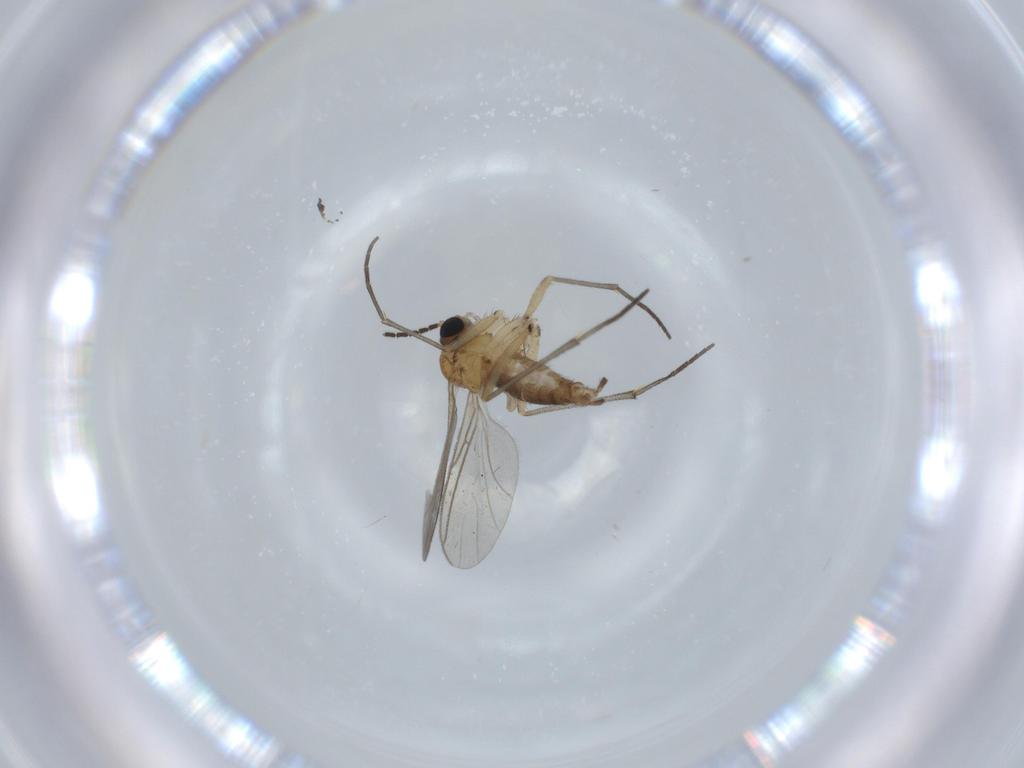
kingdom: Animalia
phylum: Arthropoda
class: Insecta
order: Diptera
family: Sciaridae
